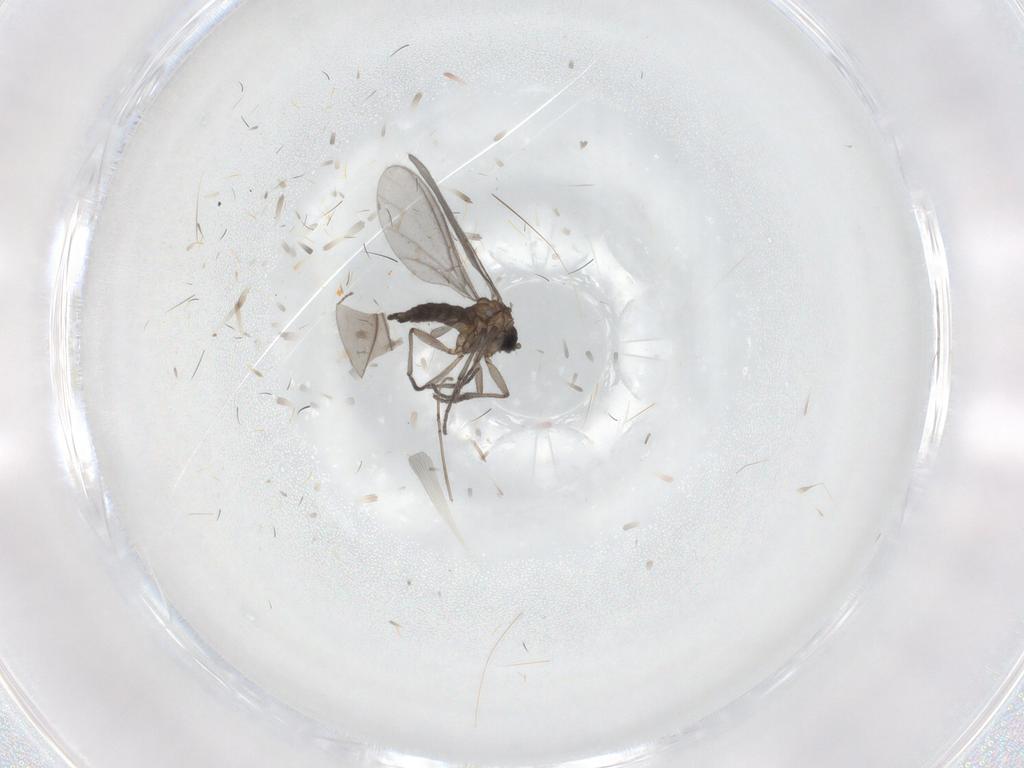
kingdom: Animalia
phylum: Arthropoda
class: Insecta
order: Diptera
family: Sciaridae
